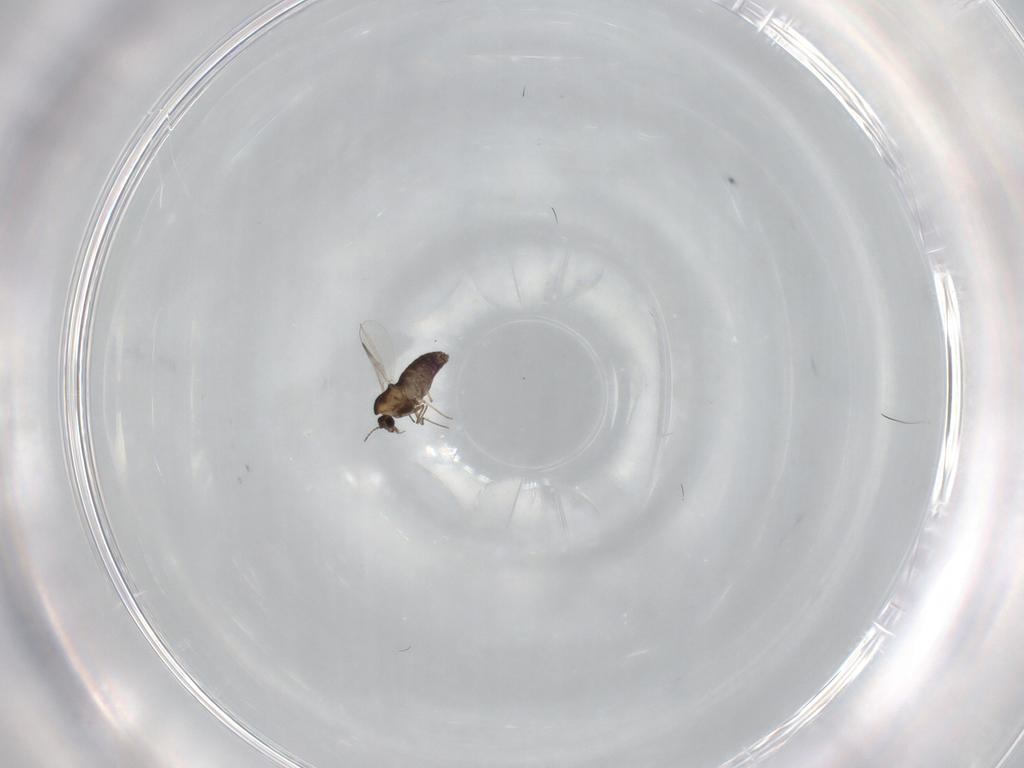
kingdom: Animalia
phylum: Arthropoda
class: Insecta
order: Diptera
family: Chironomidae
